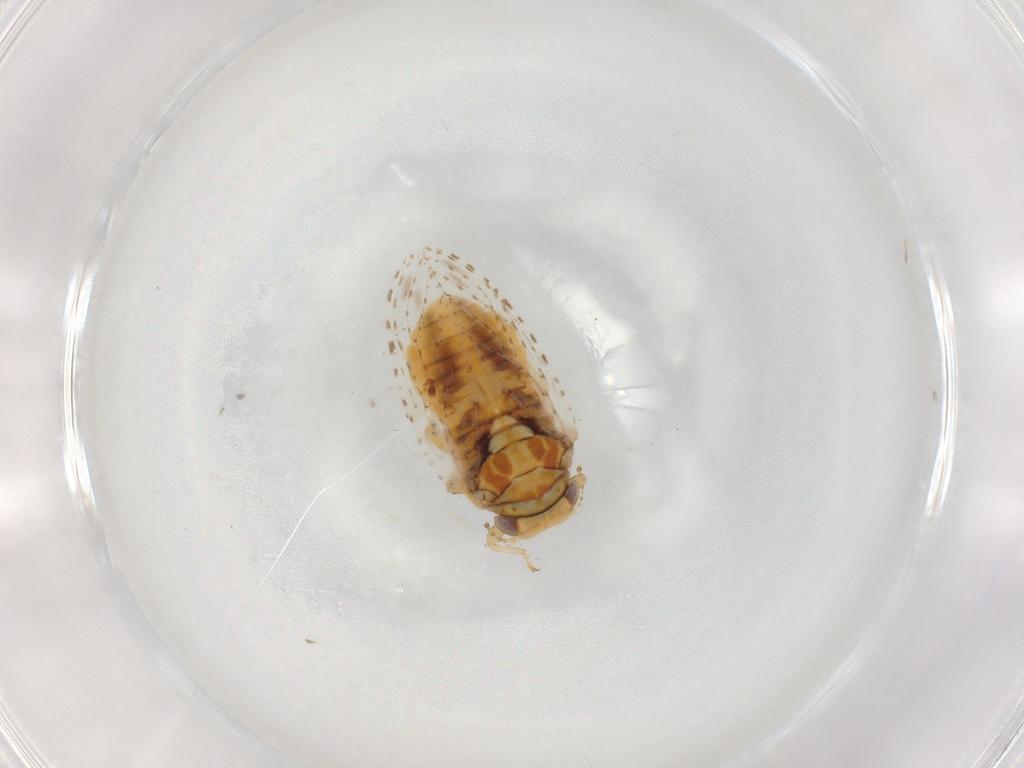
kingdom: Animalia
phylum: Arthropoda
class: Insecta
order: Hemiptera
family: Cicadellidae
